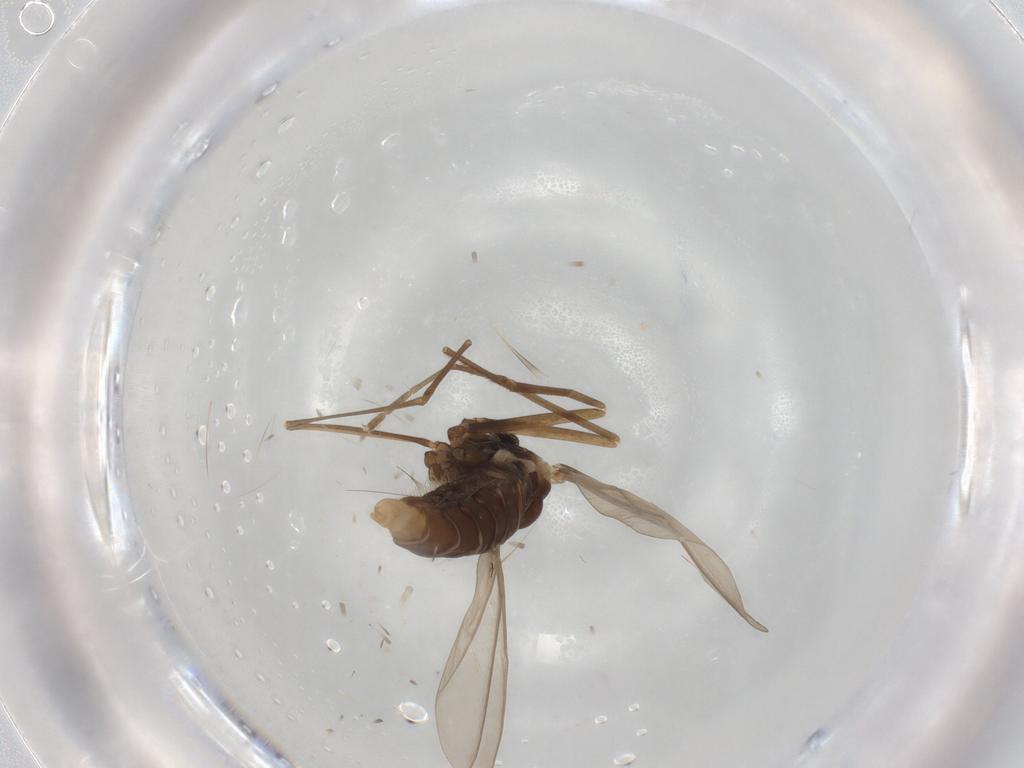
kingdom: Animalia
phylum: Arthropoda
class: Insecta
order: Diptera
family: Cecidomyiidae
